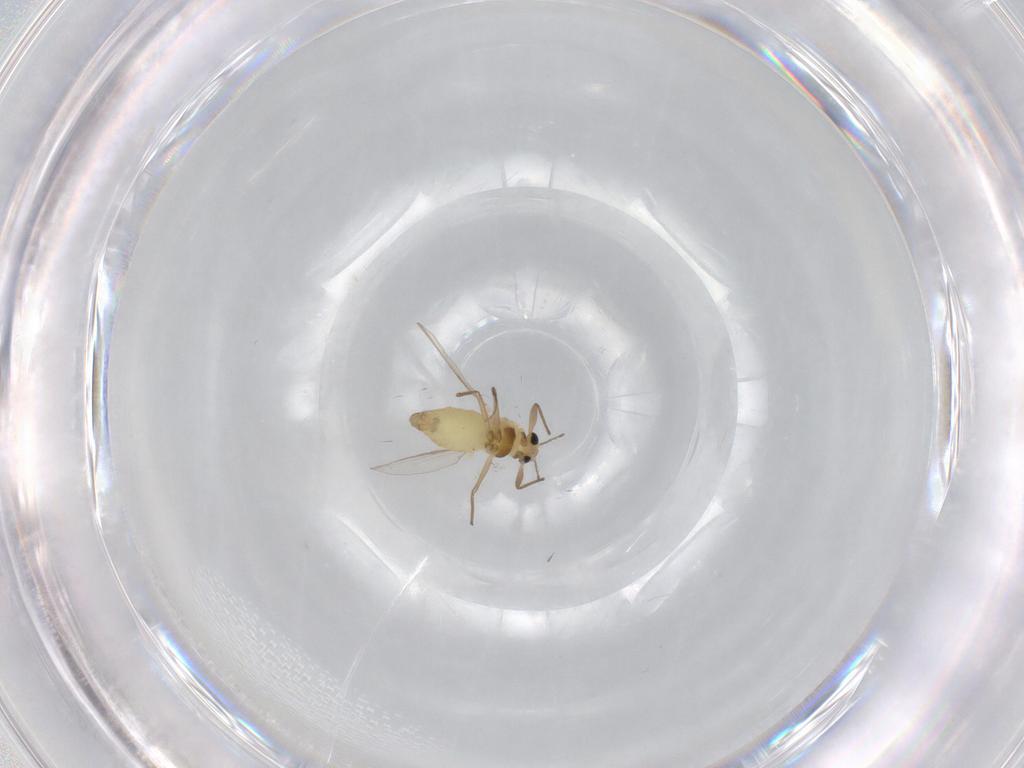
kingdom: Animalia
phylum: Arthropoda
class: Insecta
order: Diptera
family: Chironomidae
